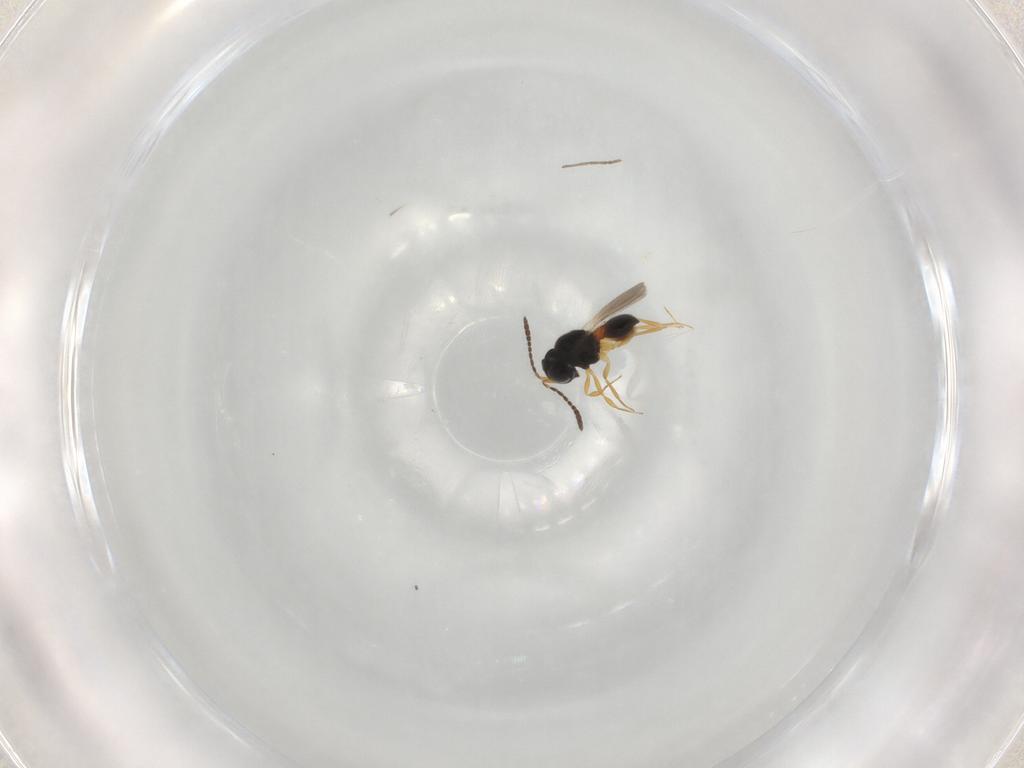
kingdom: Animalia
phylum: Arthropoda
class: Insecta
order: Hymenoptera
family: Scelionidae
